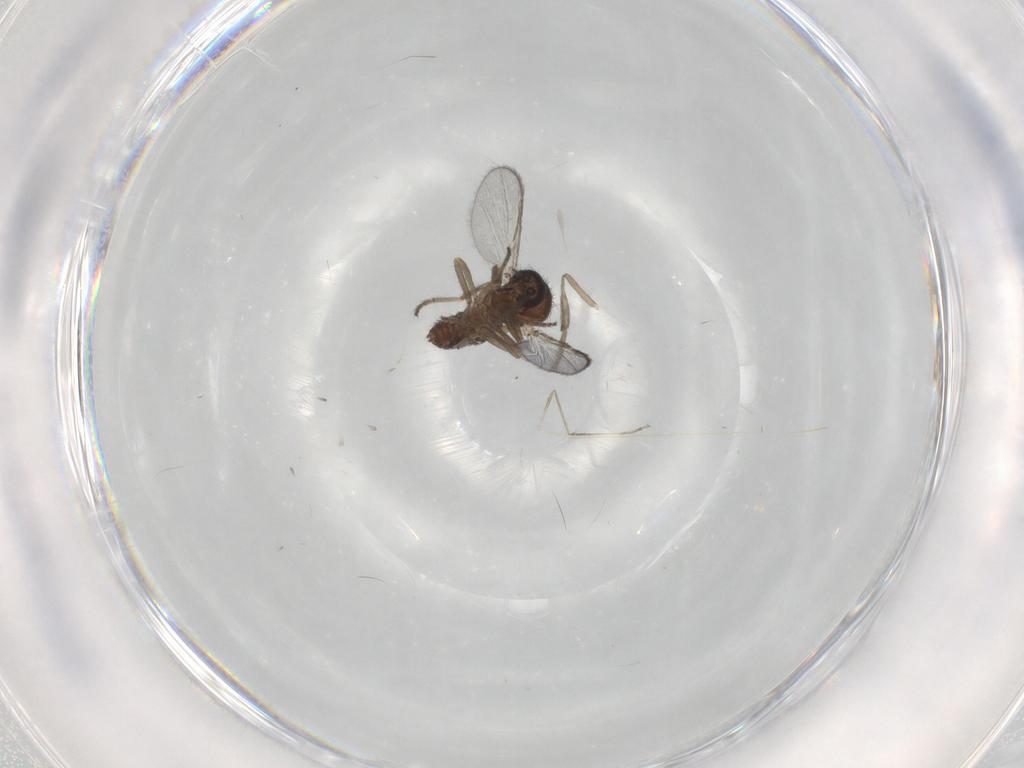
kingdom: Animalia
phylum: Arthropoda
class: Insecta
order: Diptera
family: Ceratopogonidae
